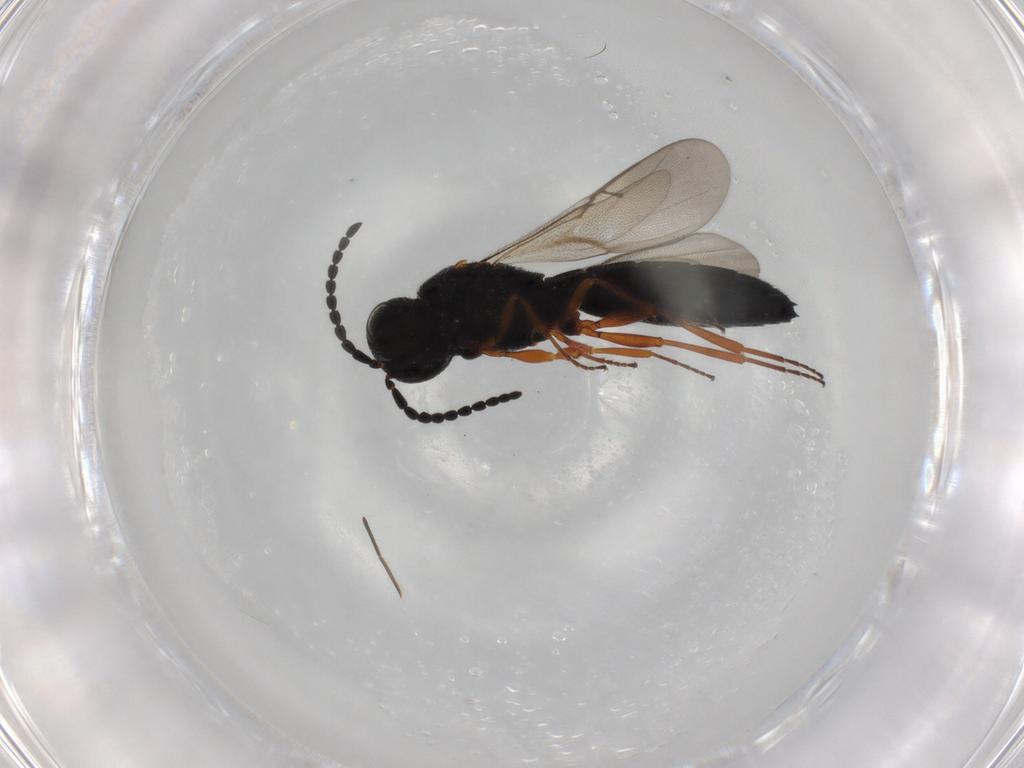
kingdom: Animalia
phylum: Arthropoda
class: Insecta
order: Hymenoptera
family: Formicidae
